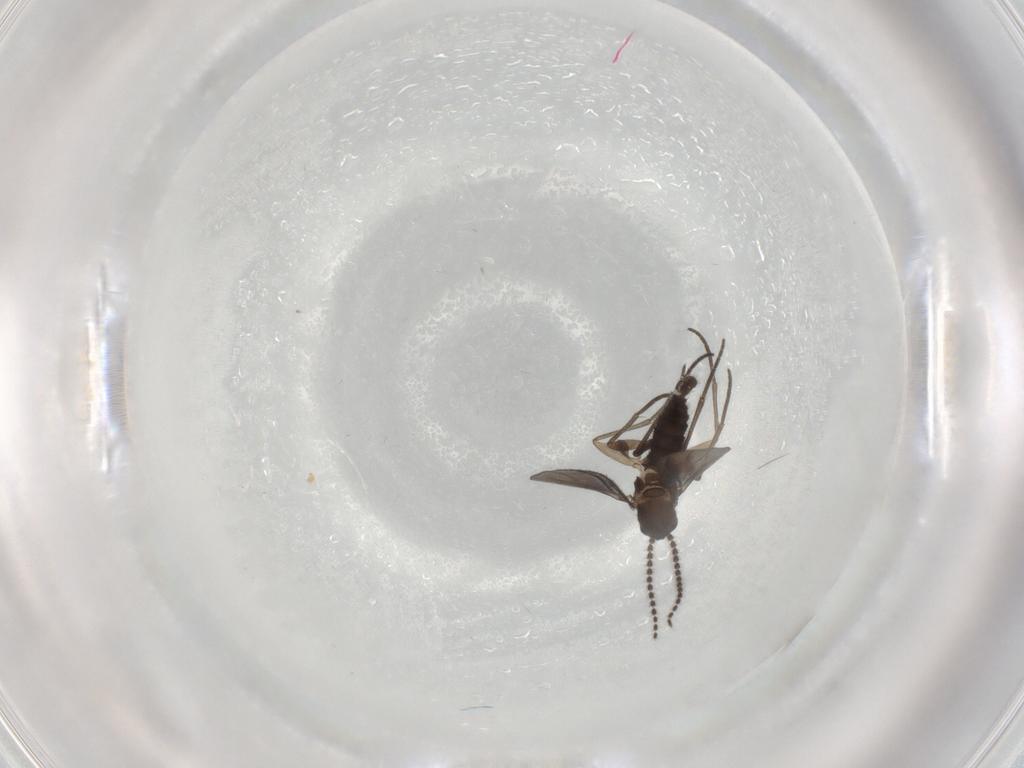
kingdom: Animalia
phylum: Arthropoda
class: Insecta
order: Diptera
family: Sciaridae
